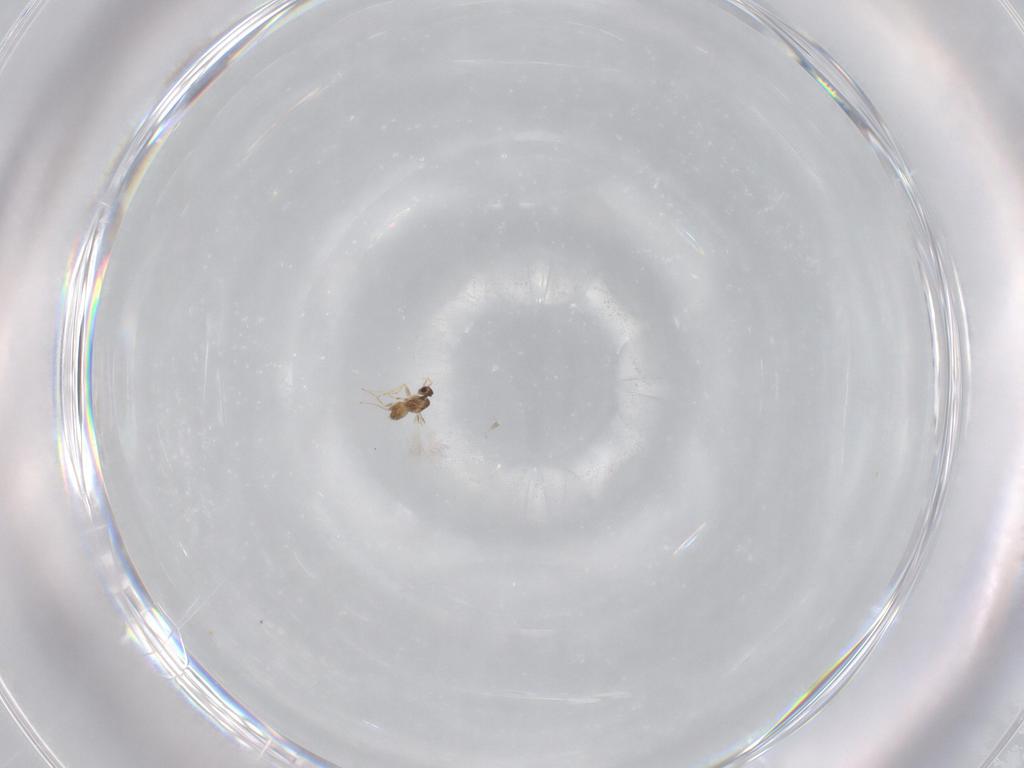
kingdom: Animalia
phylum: Arthropoda
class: Insecta
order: Hymenoptera
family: Mymaridae
